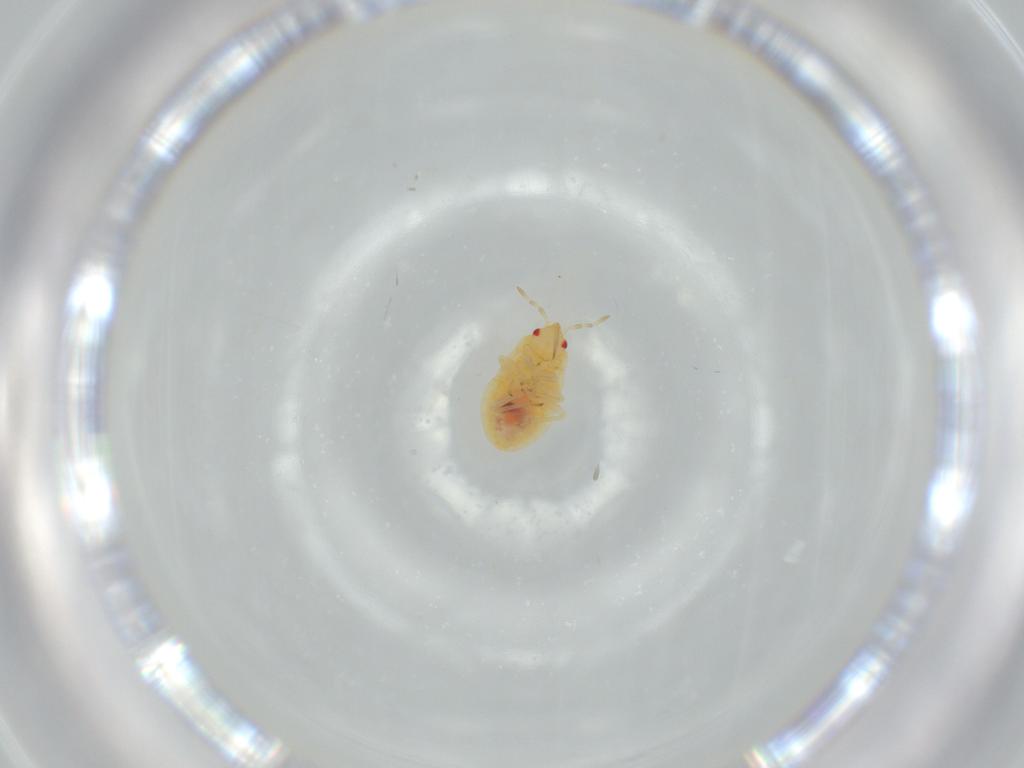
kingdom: Animalia
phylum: Arthropoda
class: Insecta
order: Hemiptera
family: Anthocoridae
